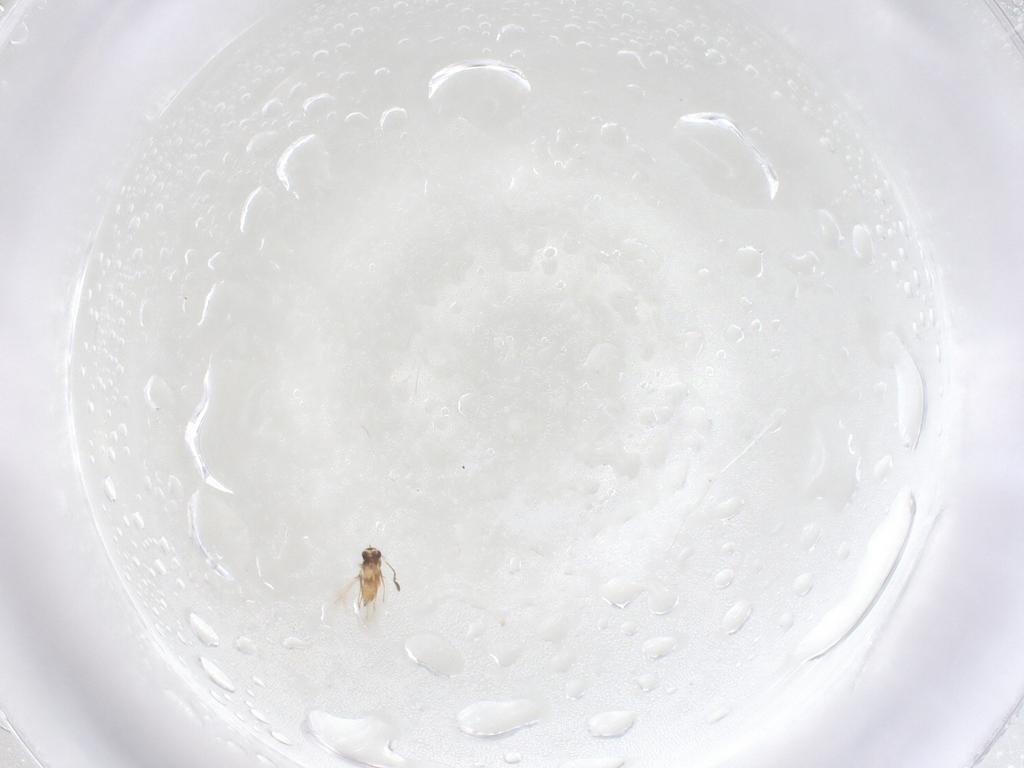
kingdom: Animalia
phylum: Arthropoda
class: Insecta
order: Hymenoptera
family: Mymaridae
